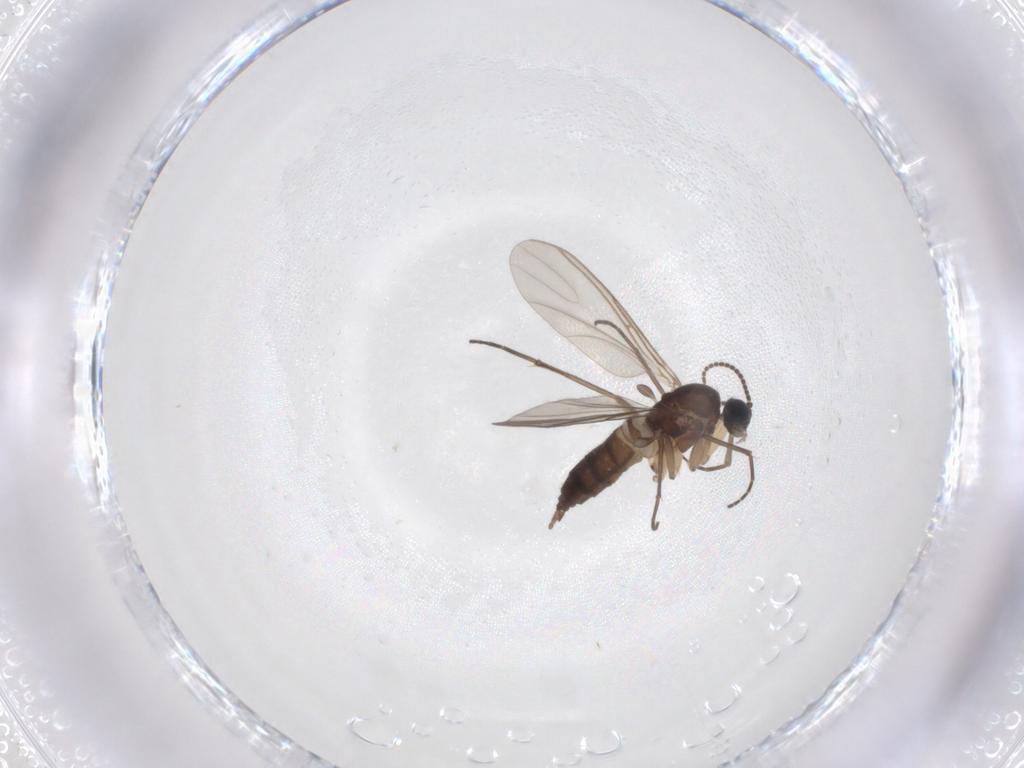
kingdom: Animalia
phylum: Arthropoda
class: Insecta
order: Diptera
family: Sciaridae
